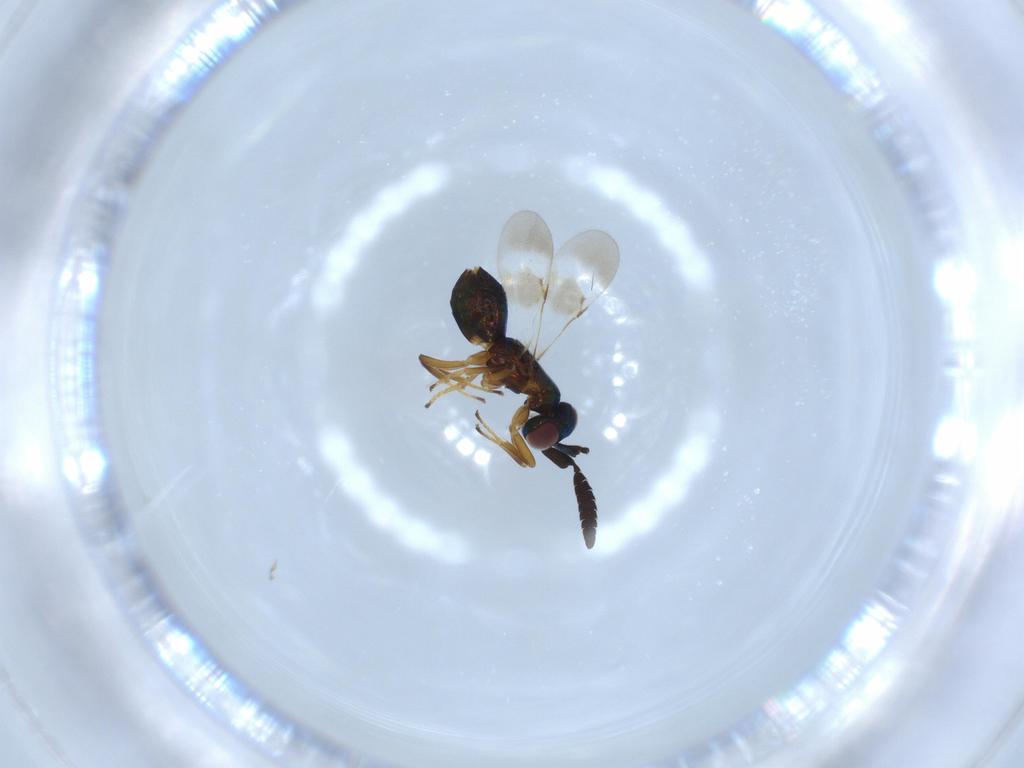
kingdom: Animalia
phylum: Arthropoda
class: Insecta
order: Hymenoptera
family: Encyrtidae
